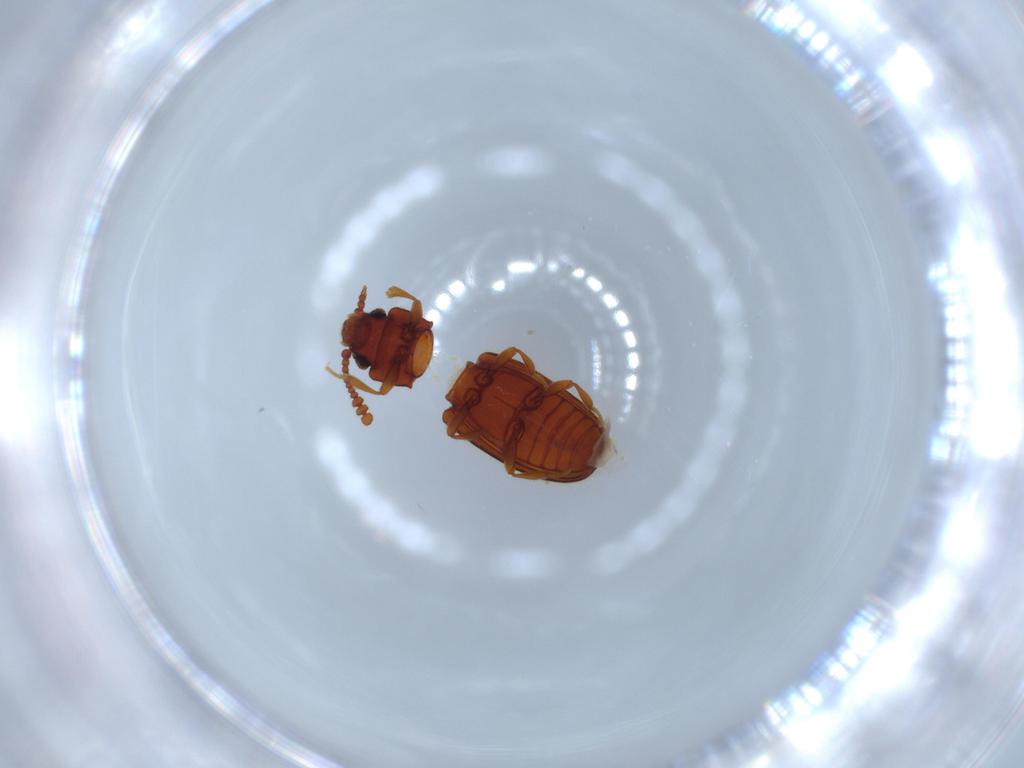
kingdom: Animalia
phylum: Arthropoda
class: Insecta
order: Coleoptera
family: Erotylidae
